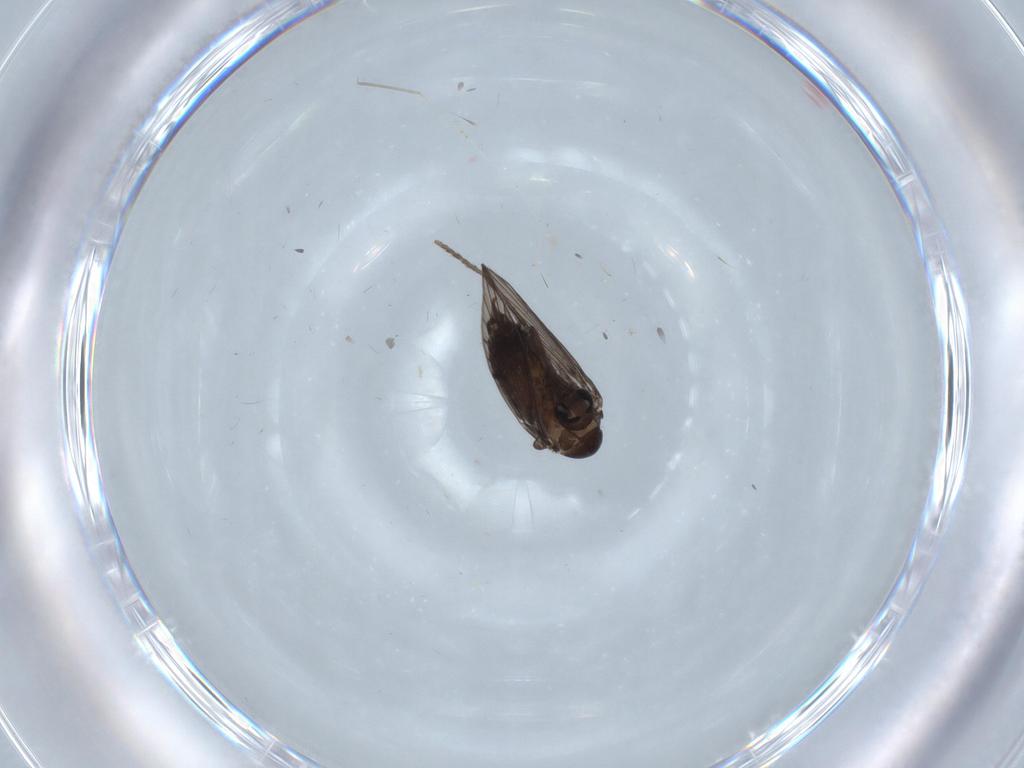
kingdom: Animalia
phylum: Arthropoda
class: Insecta
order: Diptera
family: Psychodidae
